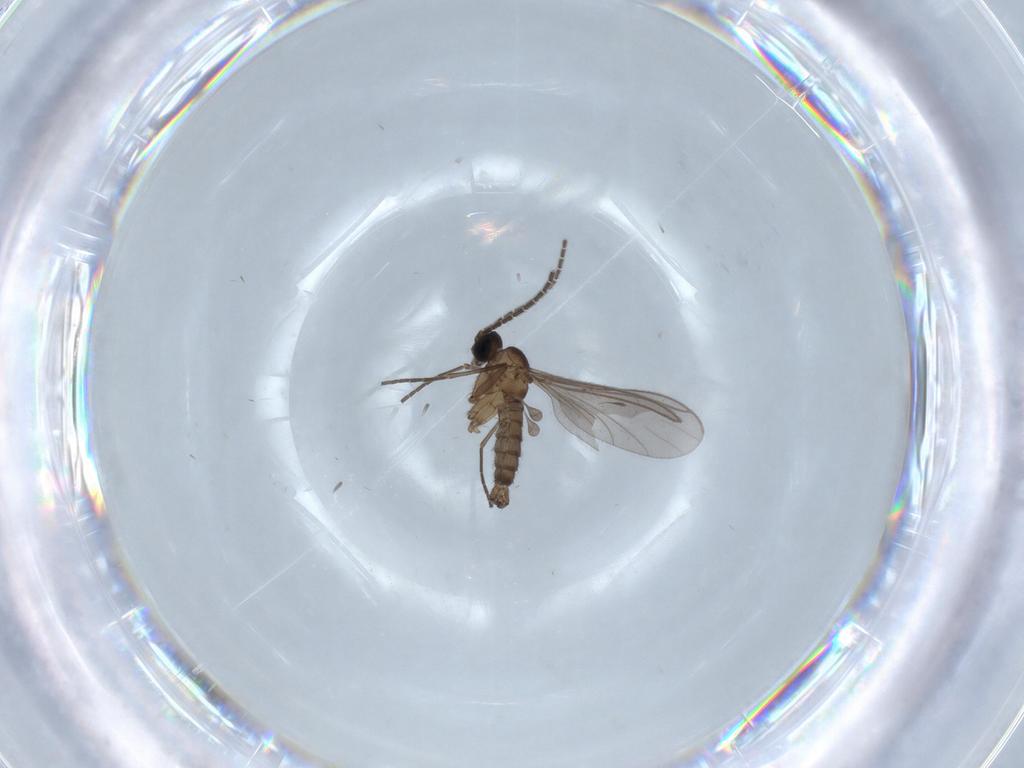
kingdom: Animalia
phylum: Arthropoda
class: Insecta
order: Diptera
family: Sciaridae
